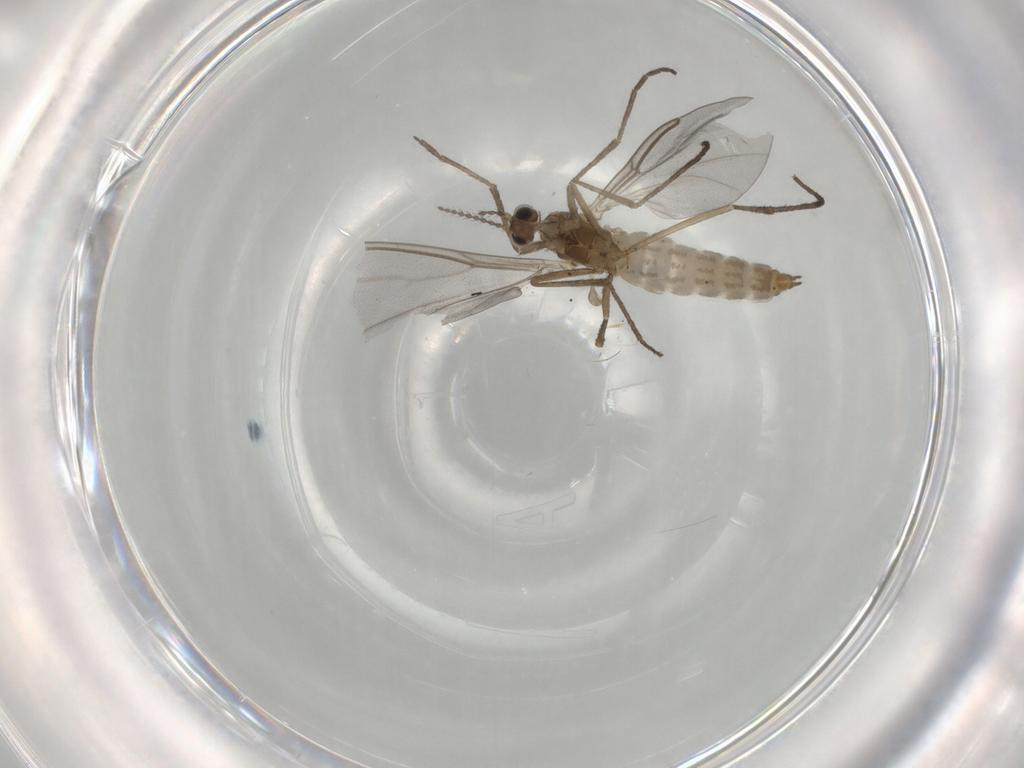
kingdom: Animalia
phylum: Arthropoda
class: Insecta
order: Diptera
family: Cecidomyiidae
